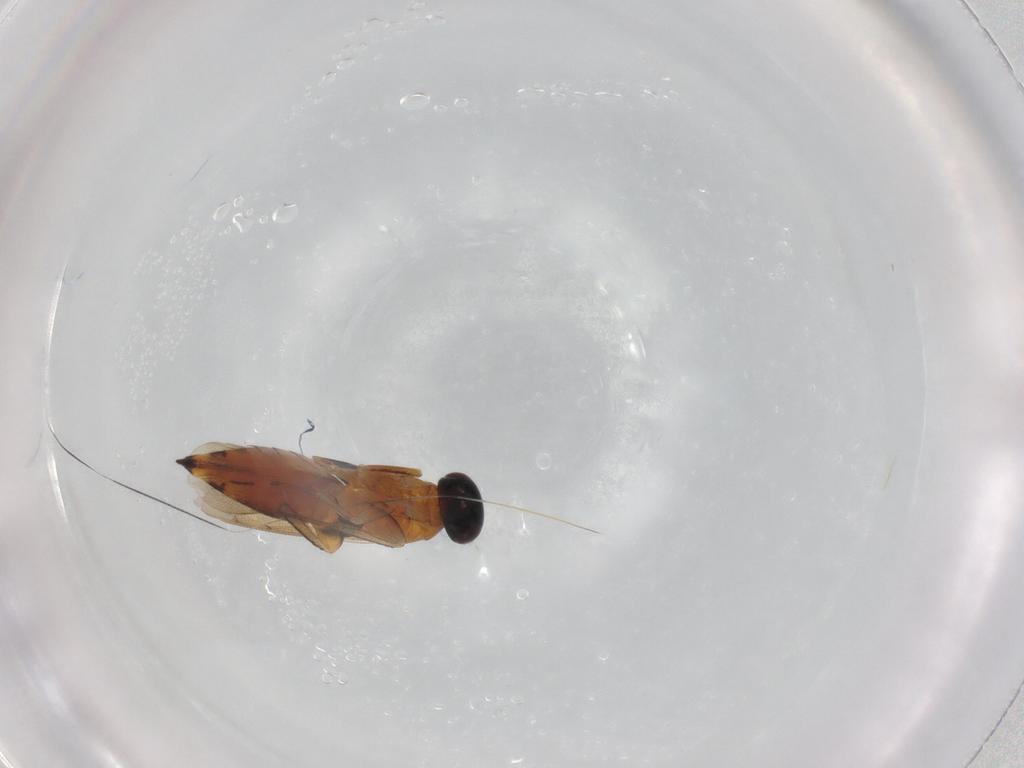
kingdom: Animalia
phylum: Arthropoda
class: Insecta
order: Hymenoptera
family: Eulophidae
